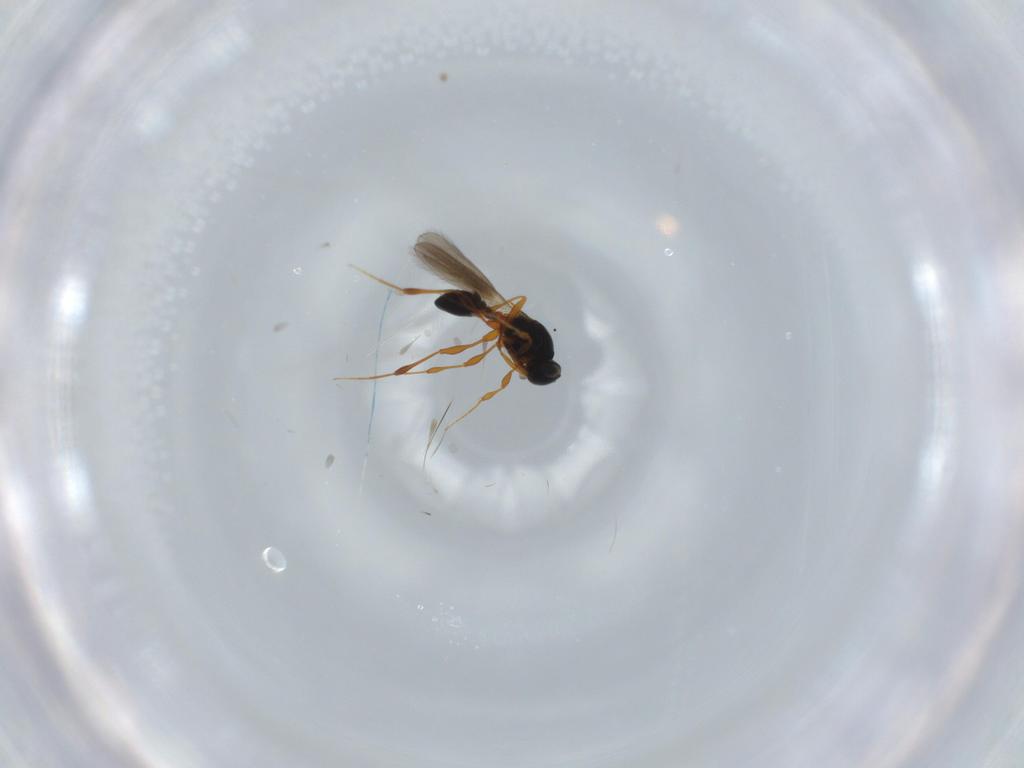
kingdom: Animalia
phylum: Arthropoda
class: Insecta
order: Hymenoptera
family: Platygastridae
